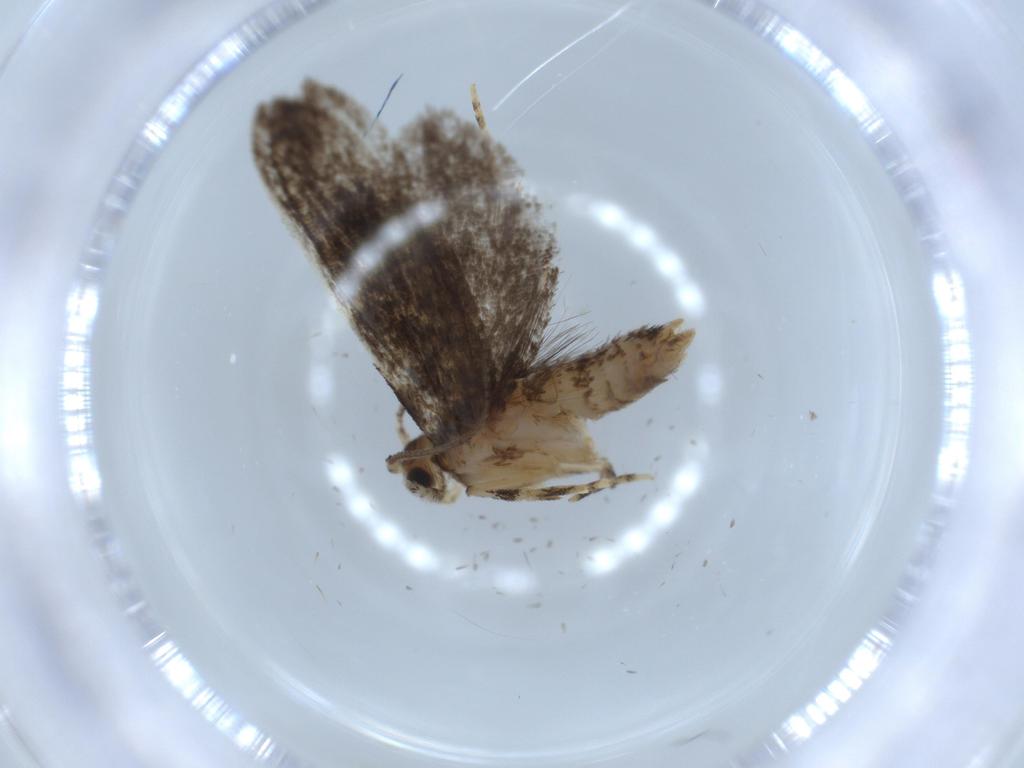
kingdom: Animalia
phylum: Arthropoda
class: Insecta
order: Lepidoptera
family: Tineidae
